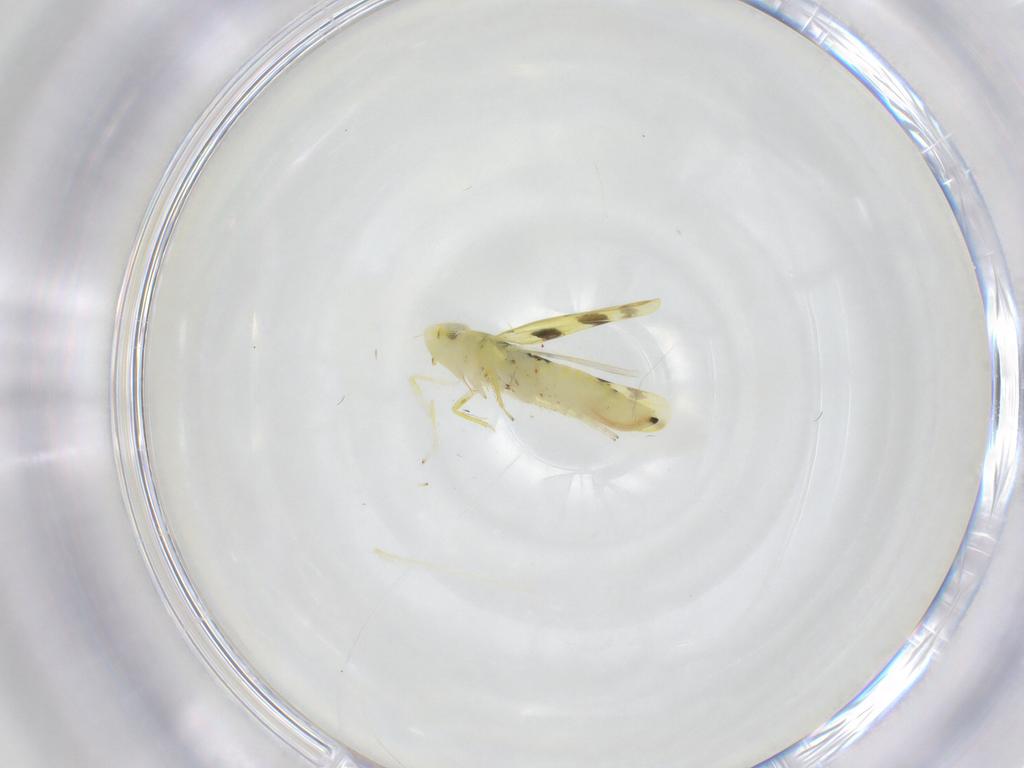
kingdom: Animalia
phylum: Arthropoda
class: Insecta
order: Hemiptera
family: Cicadellidae
